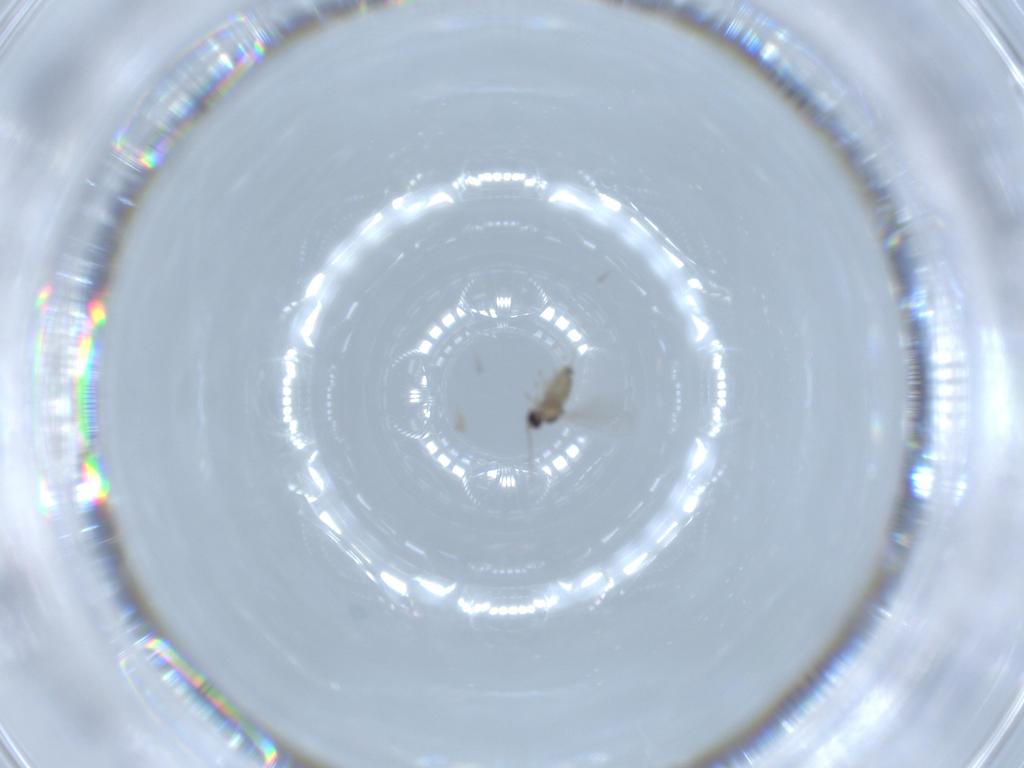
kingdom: Animalia
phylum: Arthropoda
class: Insecta
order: Diptera
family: Cecidomyiidae
